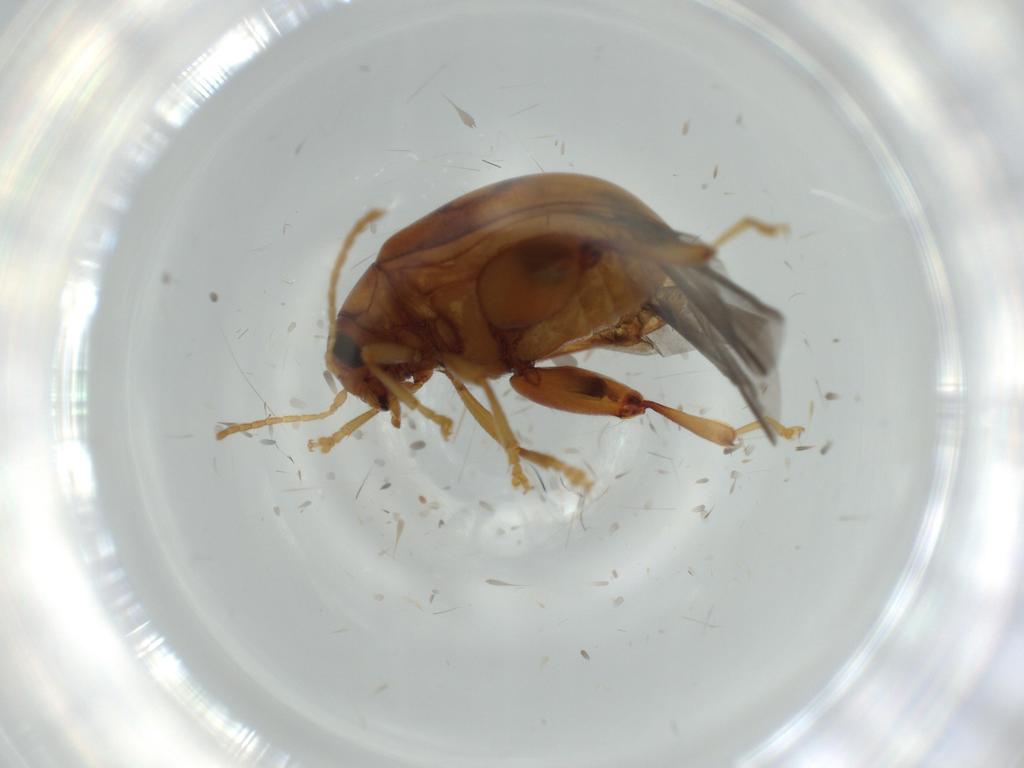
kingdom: Animalia
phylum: Arthropoda
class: Insecta
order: Coleoptera
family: Chrysomelidae
